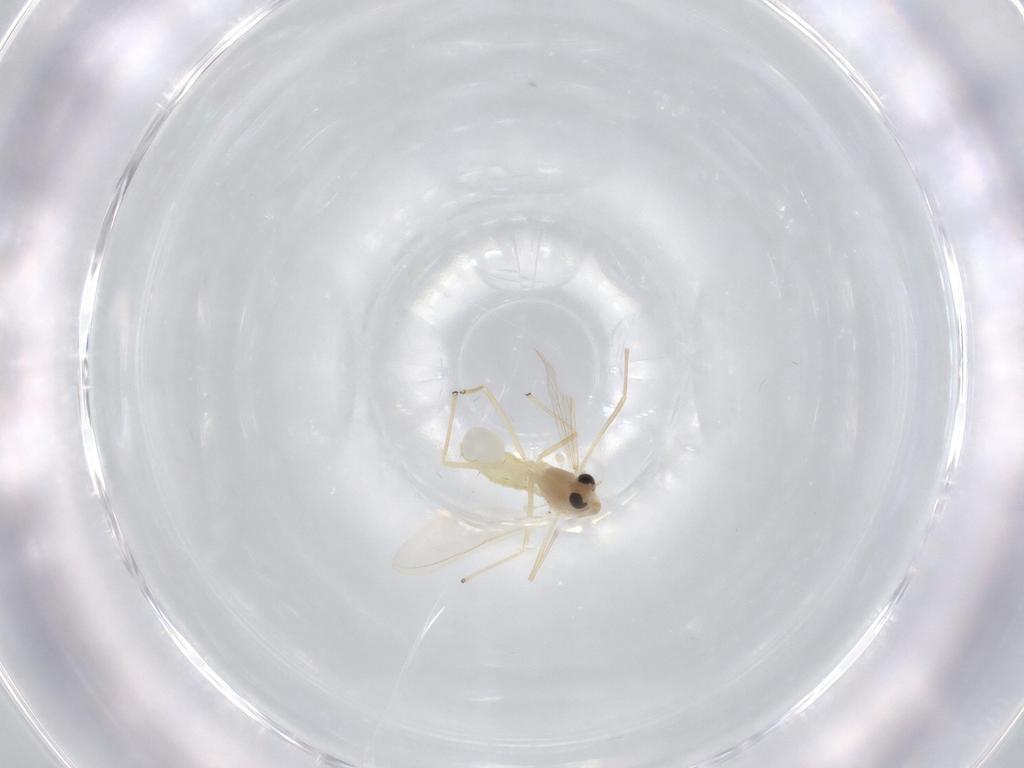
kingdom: Animalia
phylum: Arthropoda
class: Insecta
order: Diptera
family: Chironomidae
